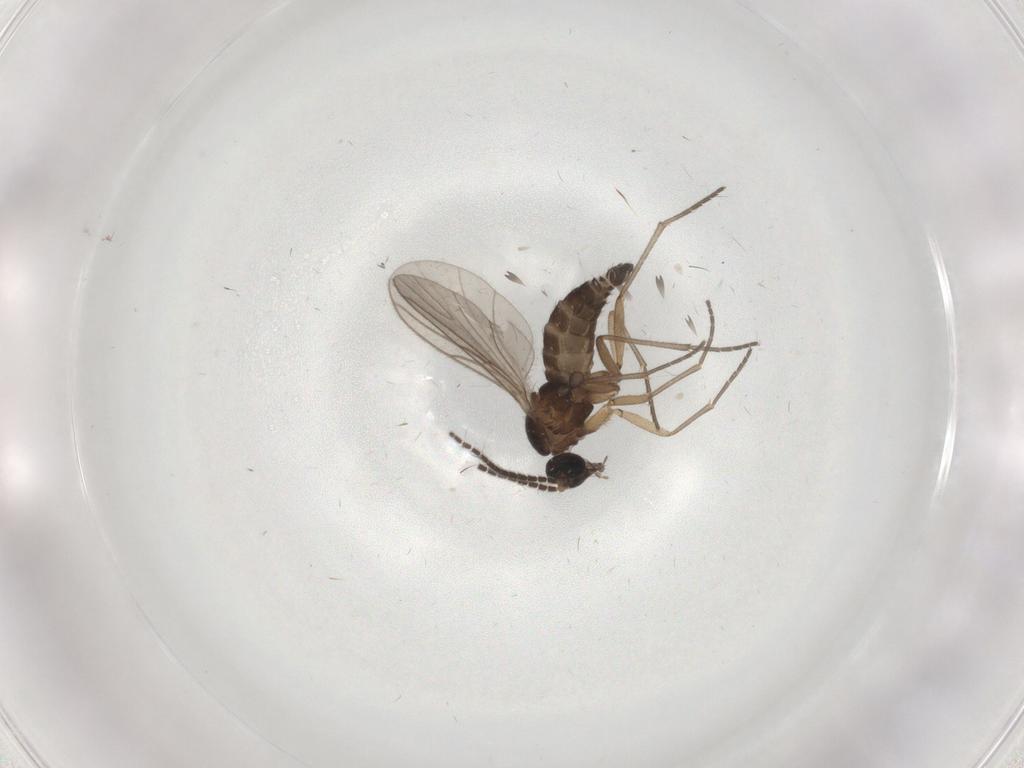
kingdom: Animalia
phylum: Arthropoda
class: Insecta
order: Diptera
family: Sciaridae
